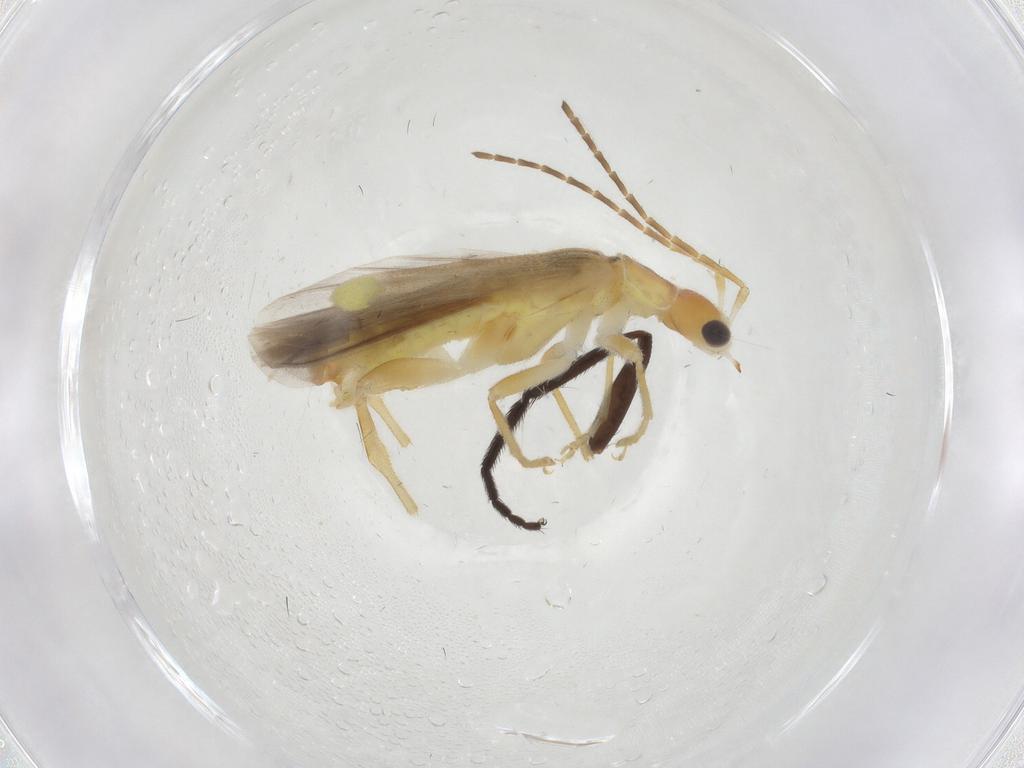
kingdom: Animalia
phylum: Arthropoda
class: Insecta
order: Coleoptera
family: Cantharidae
